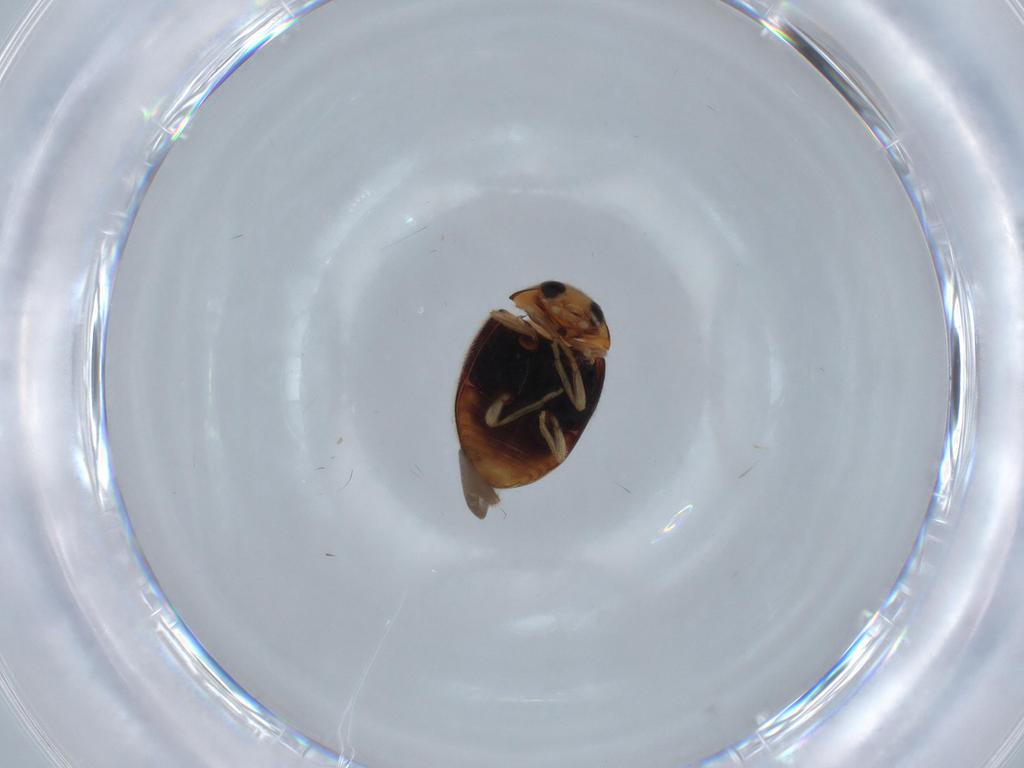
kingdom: Animalia
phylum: Arthropoda
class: Insecta
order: Coleoptera
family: Coccinellidae
